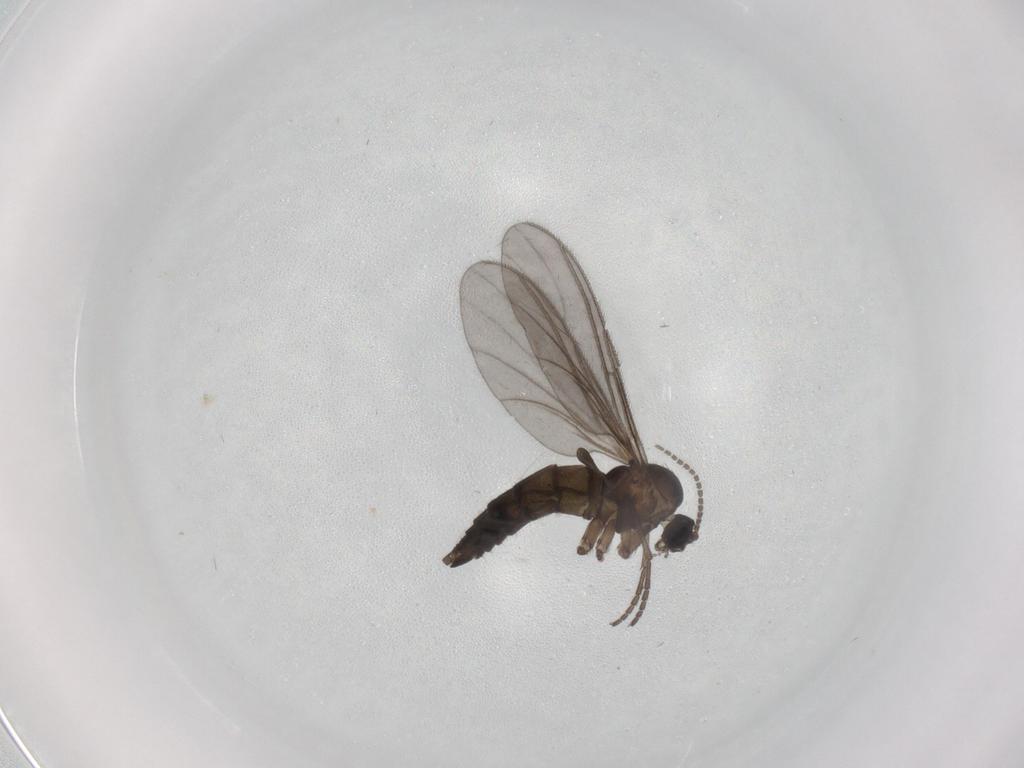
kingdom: Animalia
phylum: Arthropoda
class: Insecta
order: Diptera
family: Sciaridae
